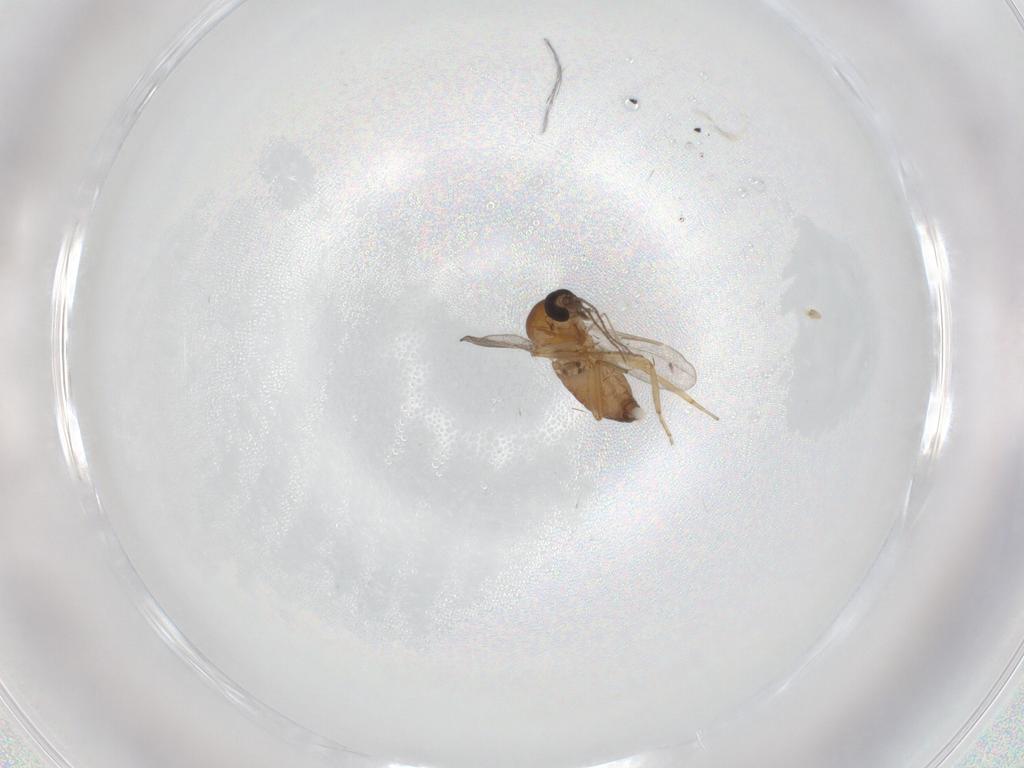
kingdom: Animalia
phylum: Arthropoda
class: Insecta
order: Diptera
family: Ceratopogonidae
